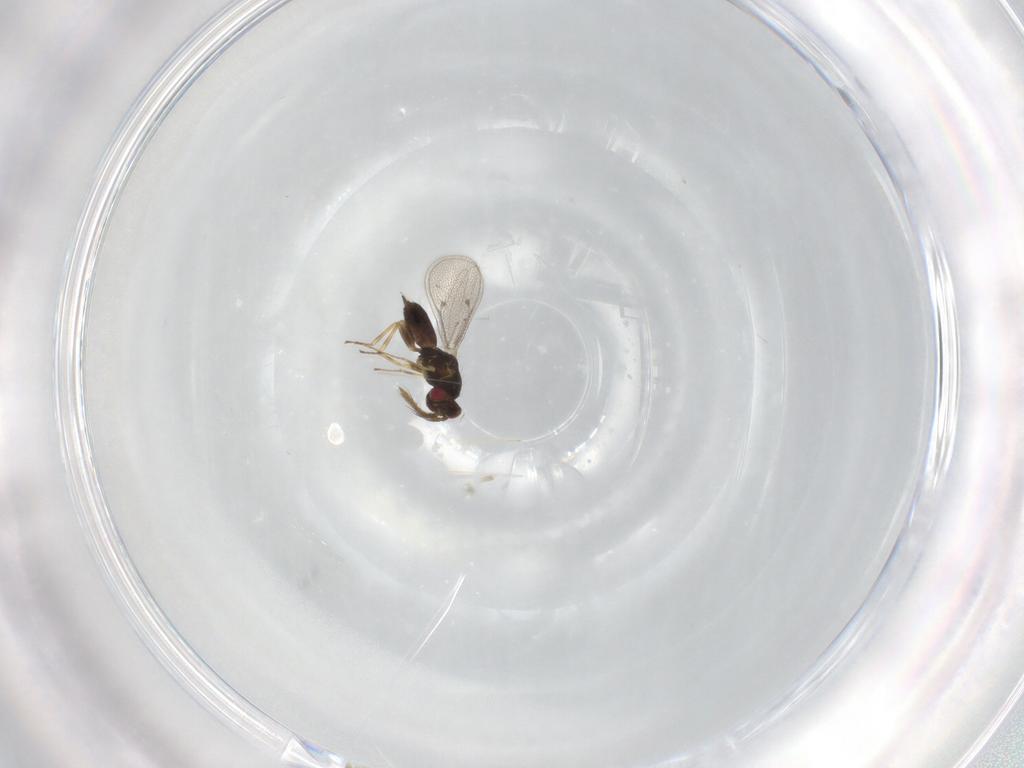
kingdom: Animalia
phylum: Arthropoda
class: Insecta
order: Hymenoptera
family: Eulophidae
